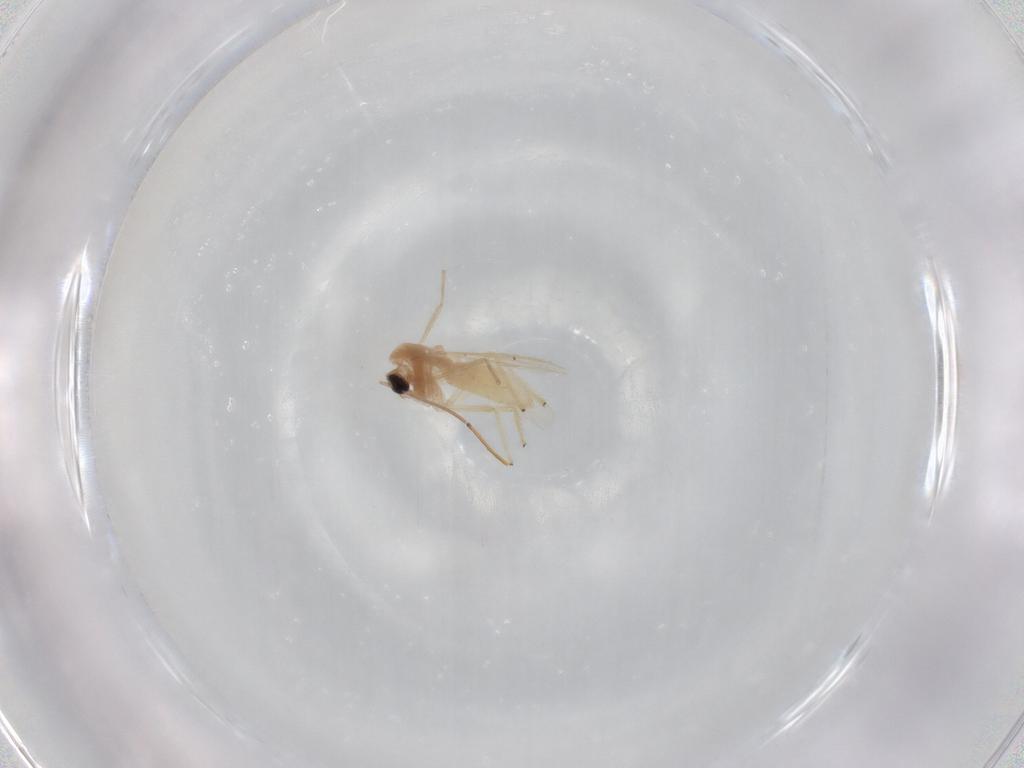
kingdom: Animalia
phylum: Arthropoda
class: Insecta
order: Diptera
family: Chironomidae
